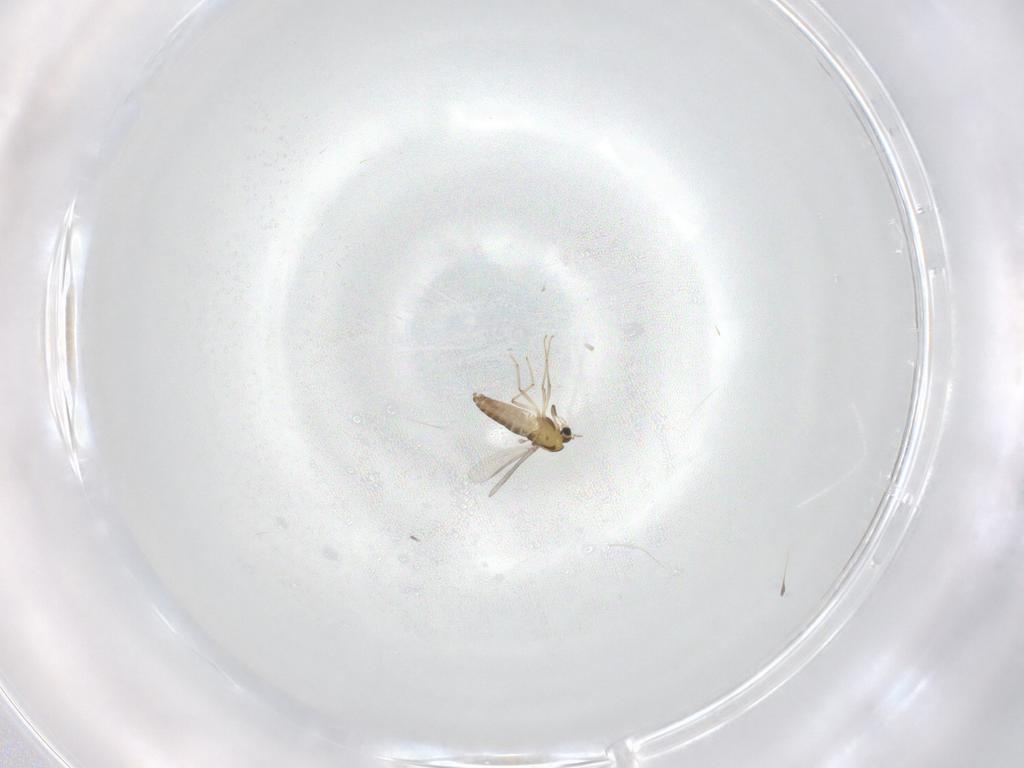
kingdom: Animalia
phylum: Arthropoda
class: Insecta
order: Diptera
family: Chironomidae
